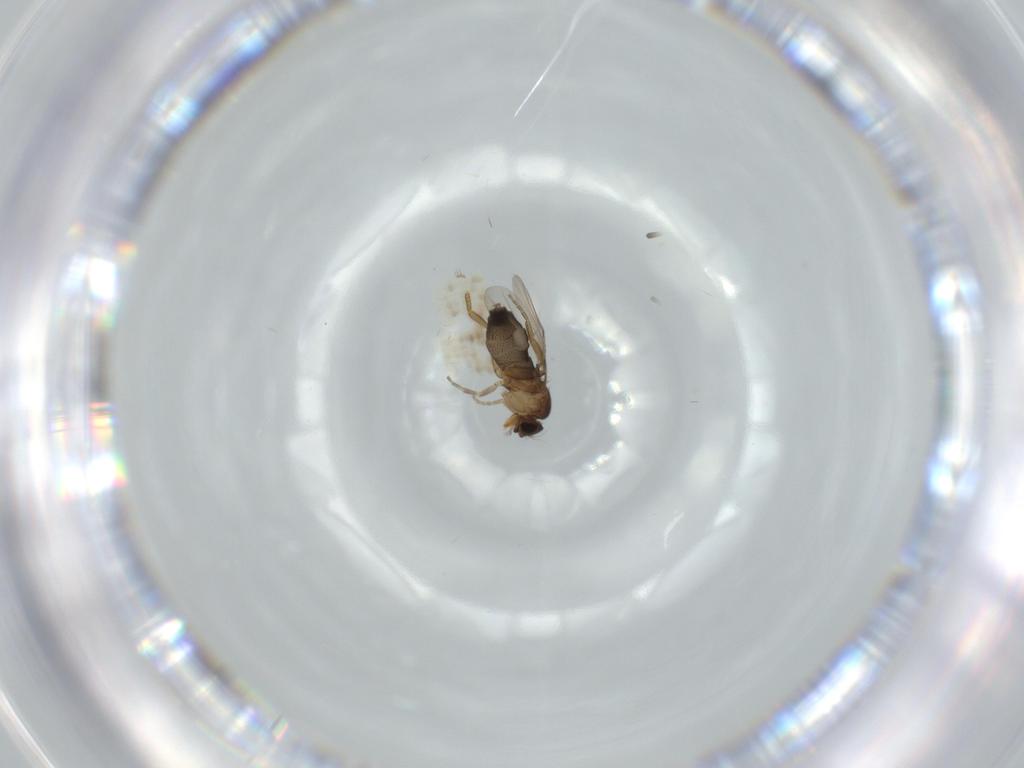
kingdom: Animalia
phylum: Arthropoda
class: Insecta
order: Diptera
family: Phoridae
